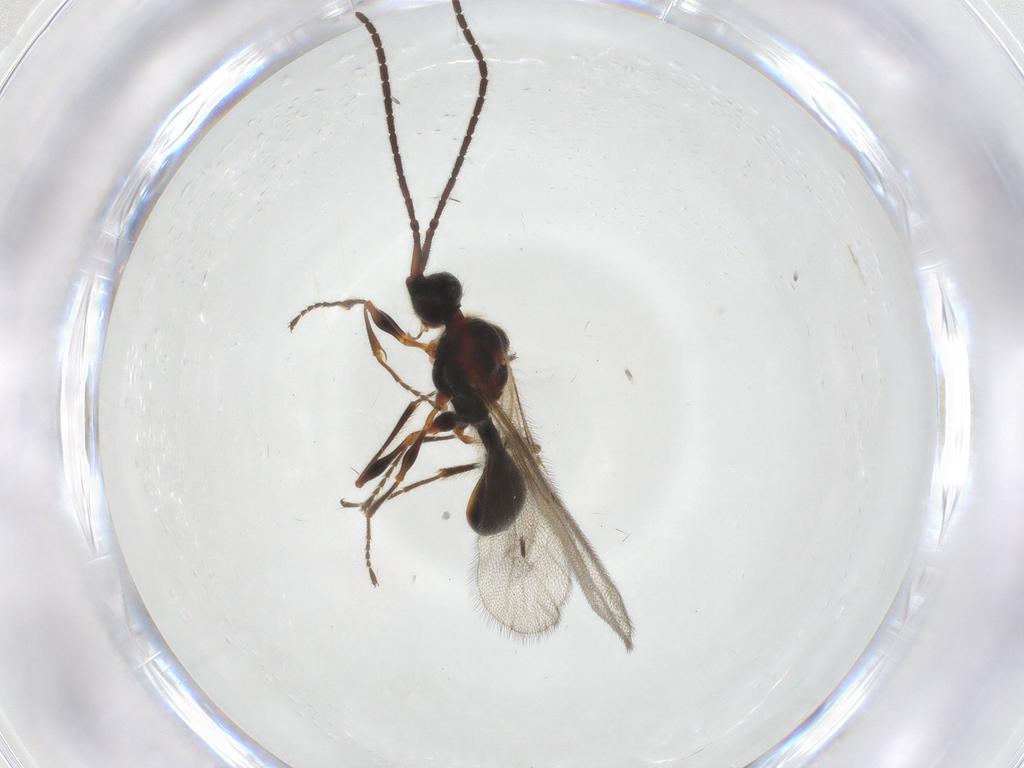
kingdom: Animalia
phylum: Arthropoda
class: Insecta
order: Hymenoptera
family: Diapriidae
